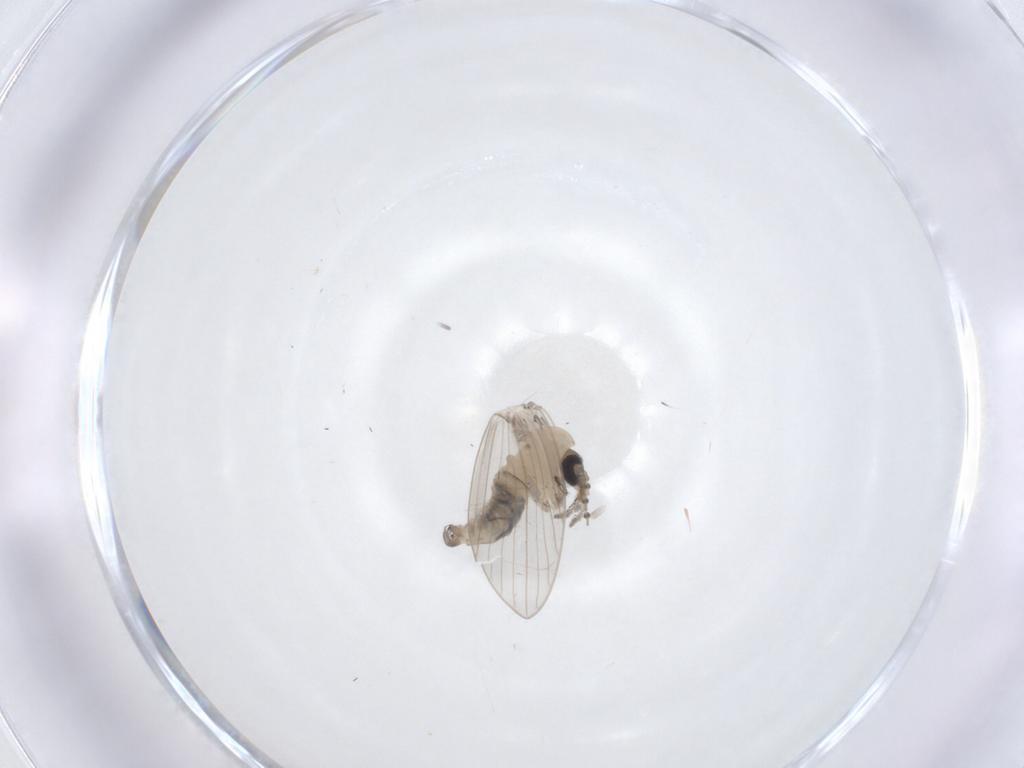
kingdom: Animalia
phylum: Arthropoda
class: Insecta
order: Diptera
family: Psychodidae
